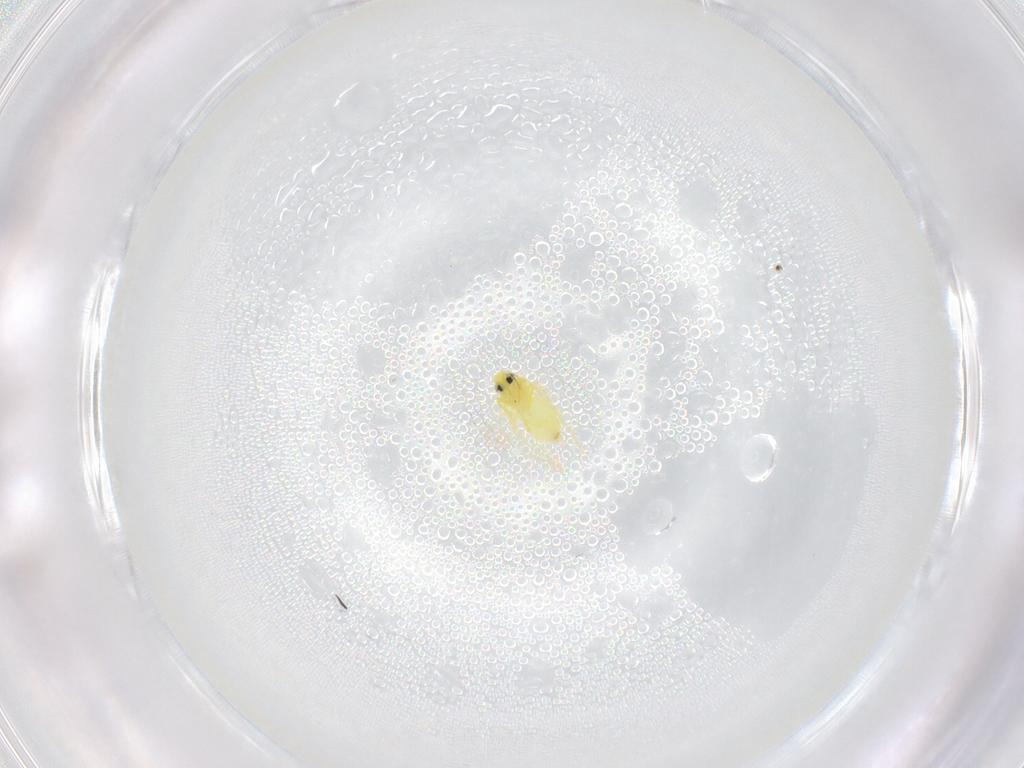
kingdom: Animalia
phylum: Arthropoda
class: Insecta
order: Hemiptera
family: Aleyrodidae
